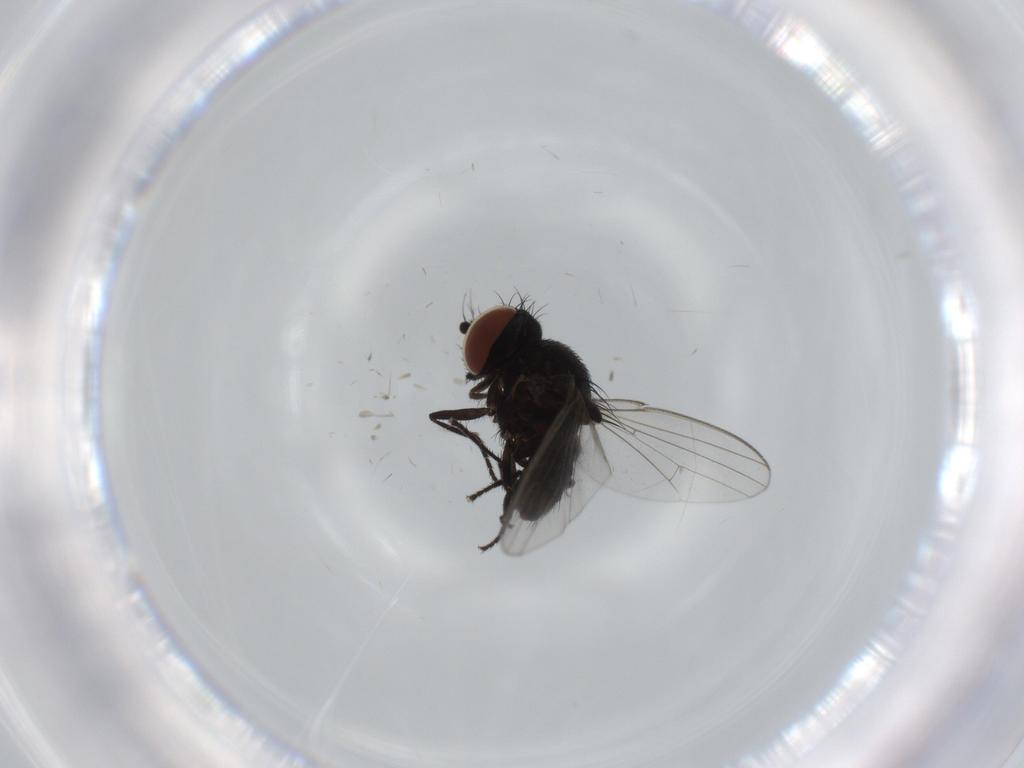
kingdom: Animalia
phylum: Arthropoda
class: Insecta
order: Diptera
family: Milichiidae
